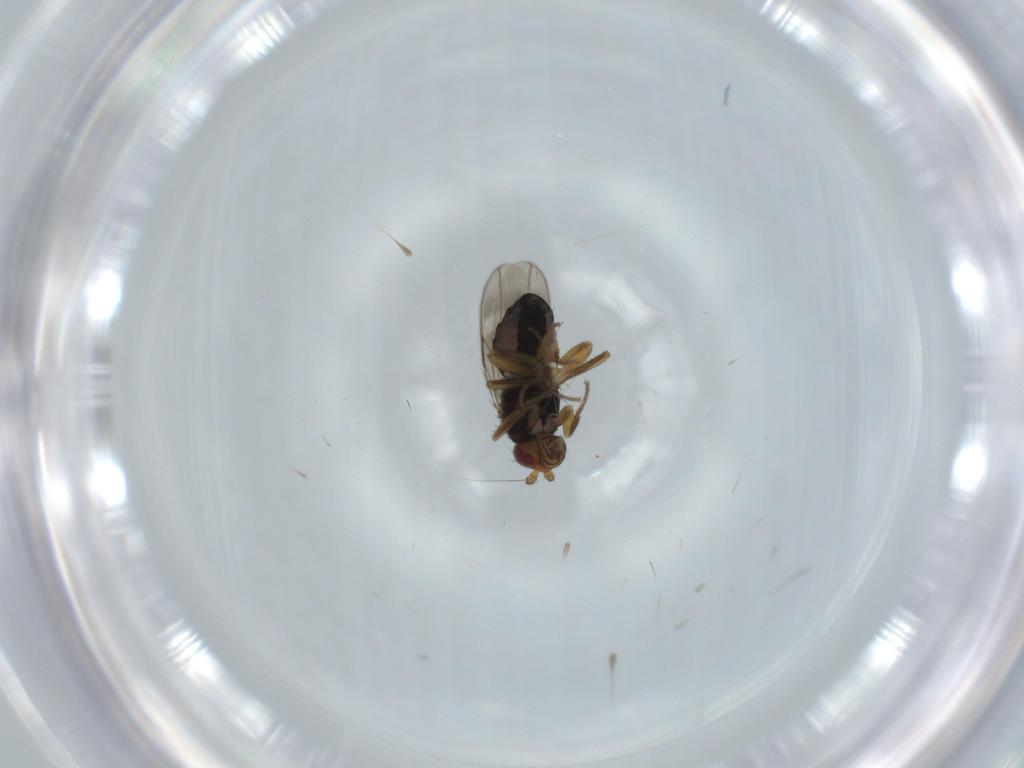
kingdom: Animalia
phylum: Arthropoda
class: Insecta
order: Diptera
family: Sphaeroceridae
